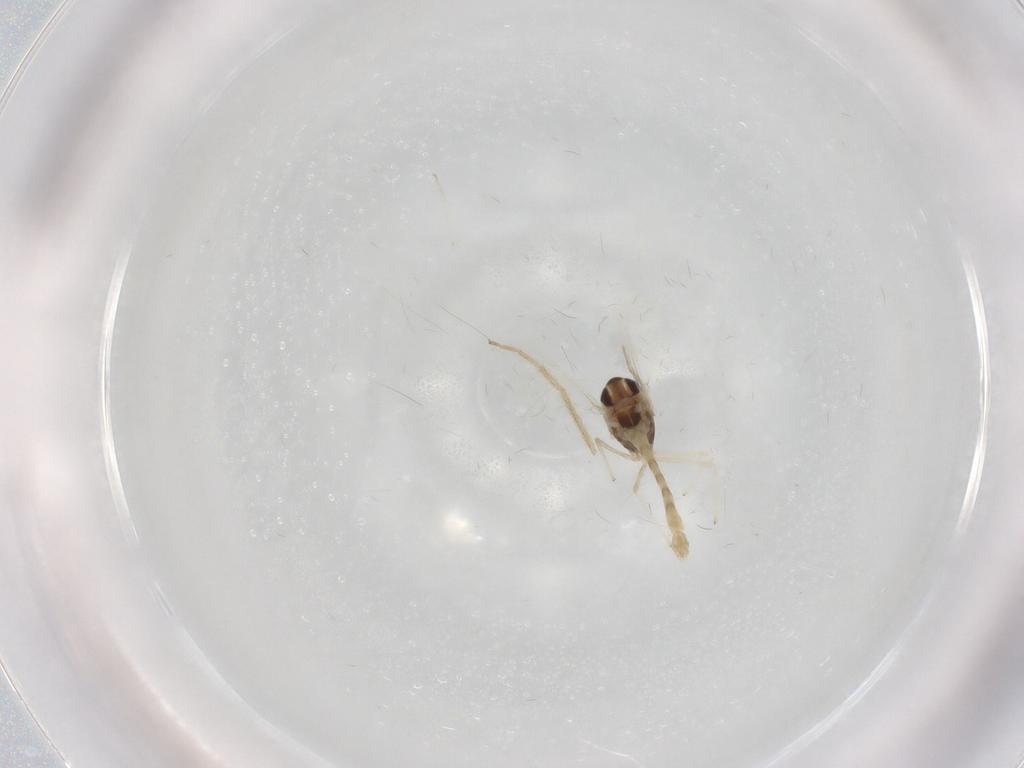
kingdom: Animalia
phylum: Arthropoda
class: Insecta
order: Diptera
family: Chironomidae
